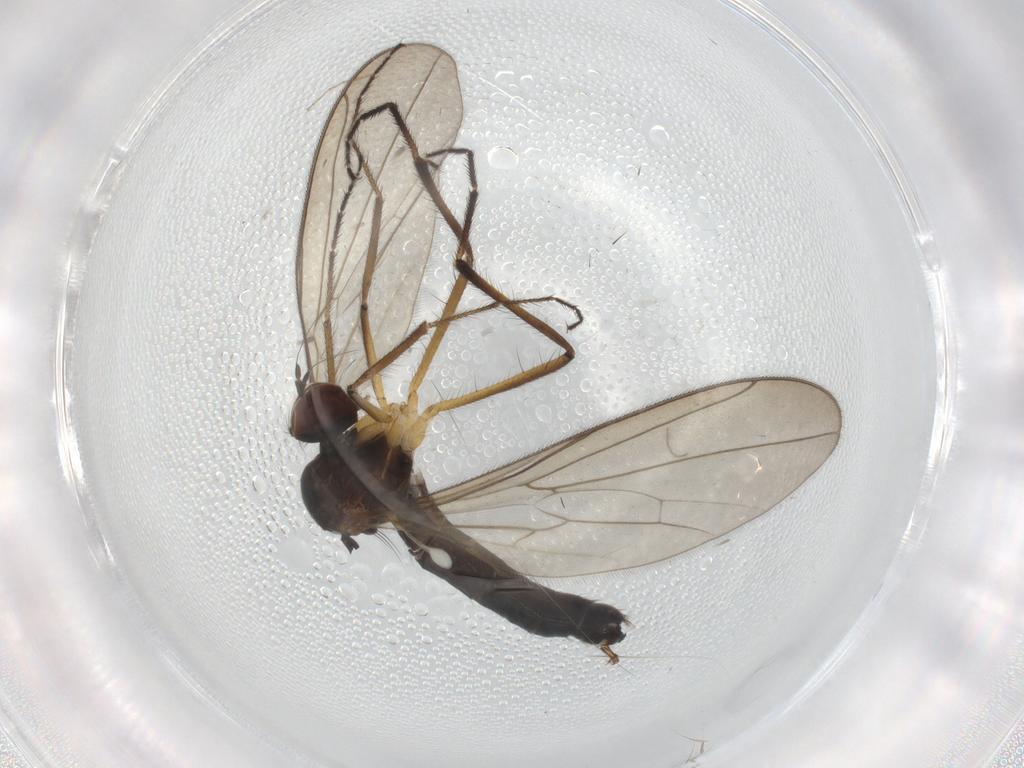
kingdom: Animalia
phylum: Arthropoda
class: Insecta
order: Diptera
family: Hybotidae
